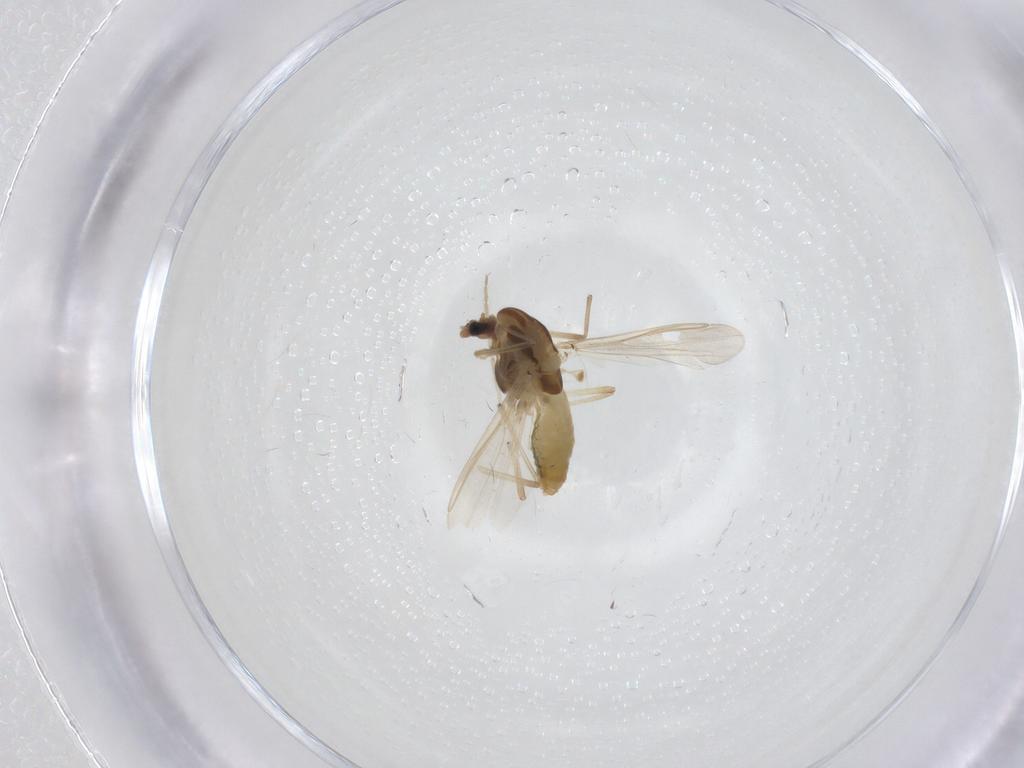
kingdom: Animalia
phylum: Arthropoda
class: Insecta
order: Diptera
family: Chironomidae
